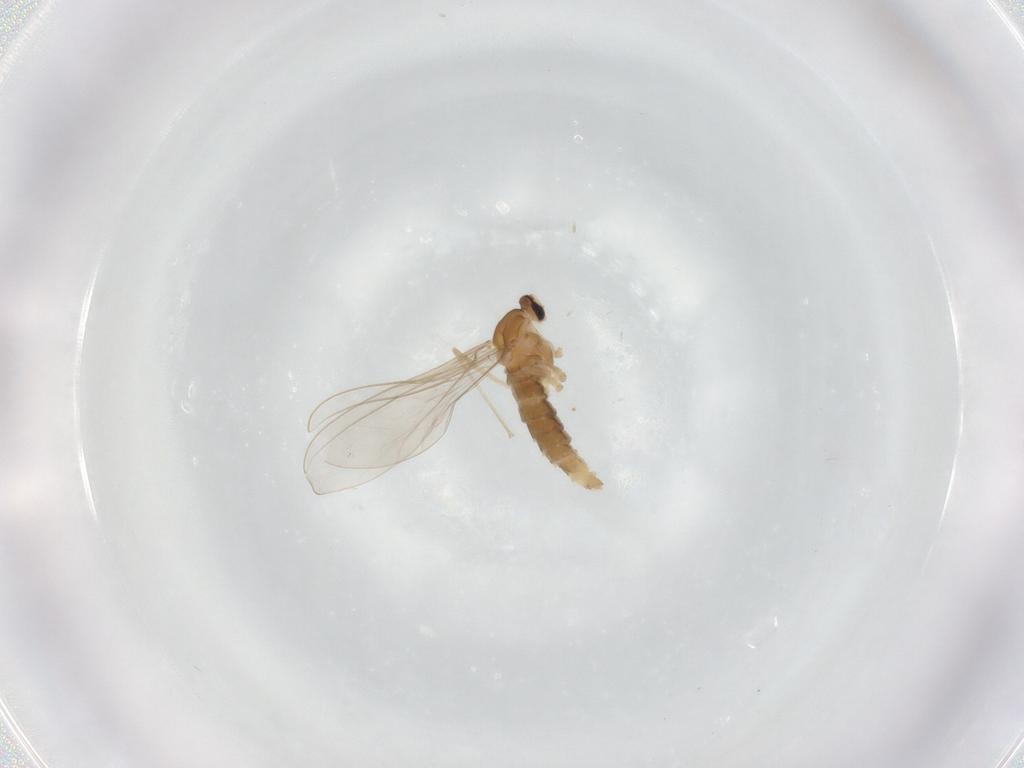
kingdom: Animalia
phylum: Arthropoda
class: Insecta
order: Diptera
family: Cecidomyiidae
